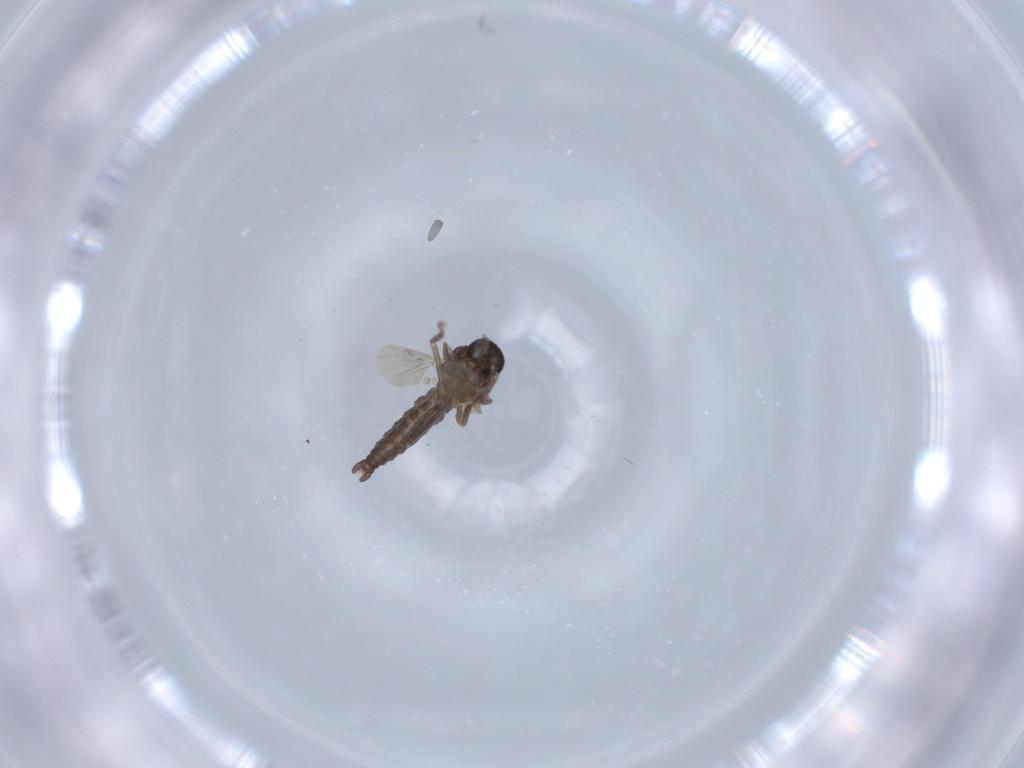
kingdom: Animalia
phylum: Arthropoda
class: Insecta
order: Diptera
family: Ceratopogonidae
